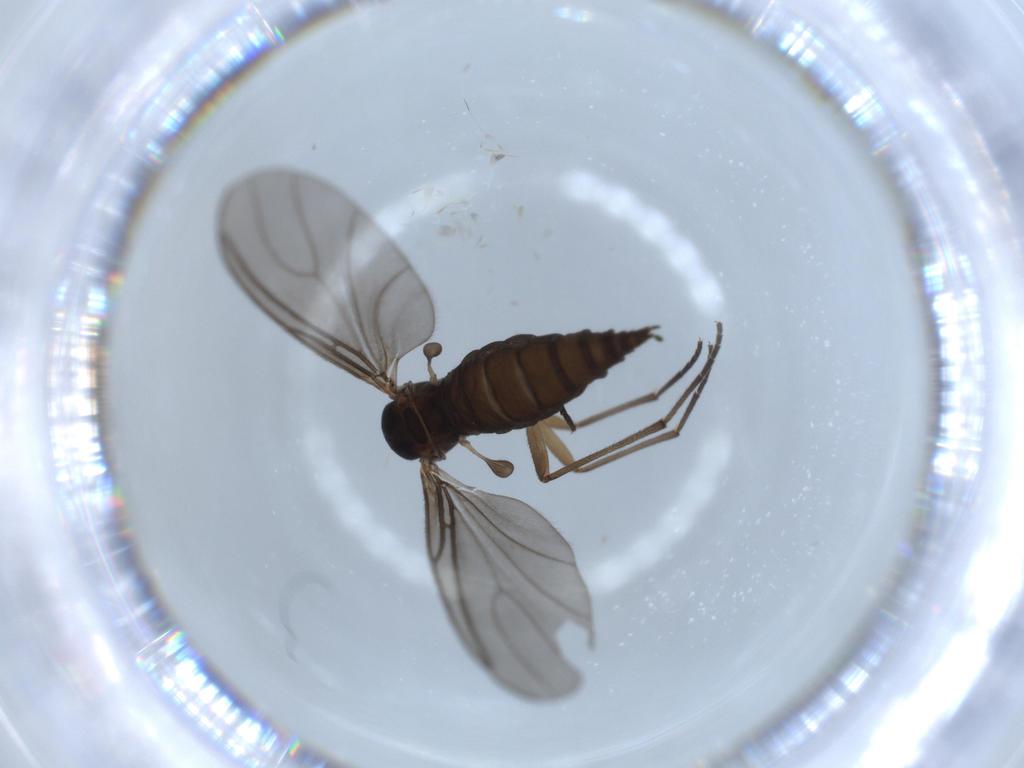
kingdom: Animalia
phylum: Arthropoda
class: Insecta
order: Diptera
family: Sciaridae
